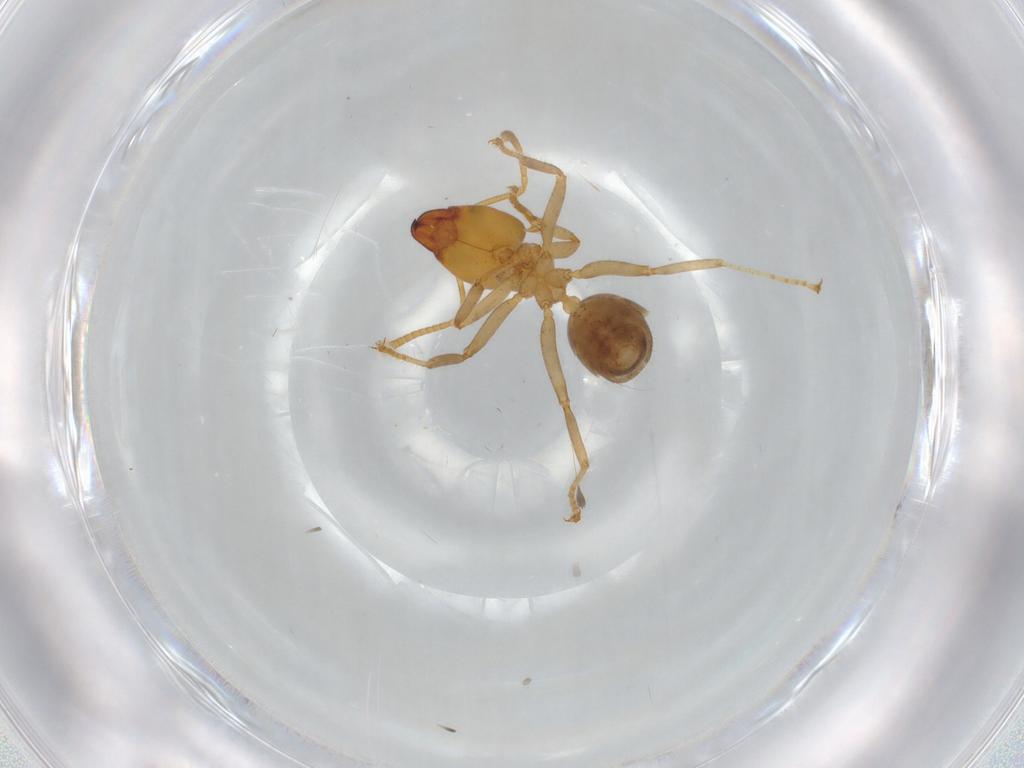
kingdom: Animalia
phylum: Arthropoda
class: Insecta
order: Hymenoptera
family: Formicidae
